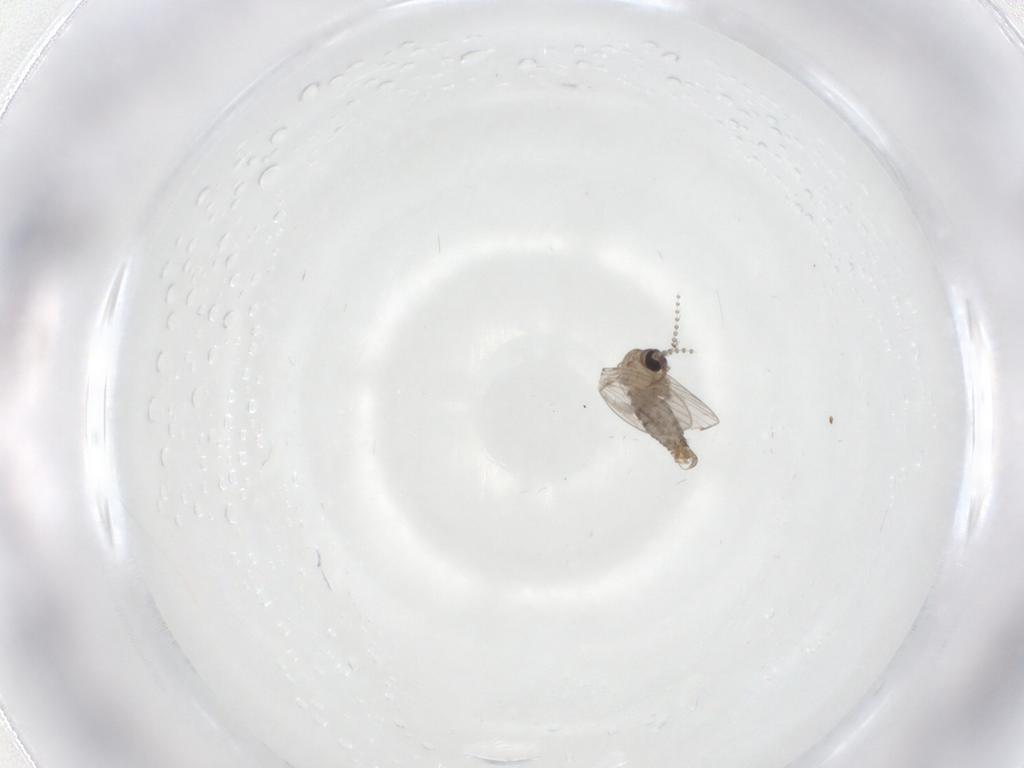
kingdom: Animalia
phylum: Arthropoda
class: Insecta
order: Diptera
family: Psychodidae
